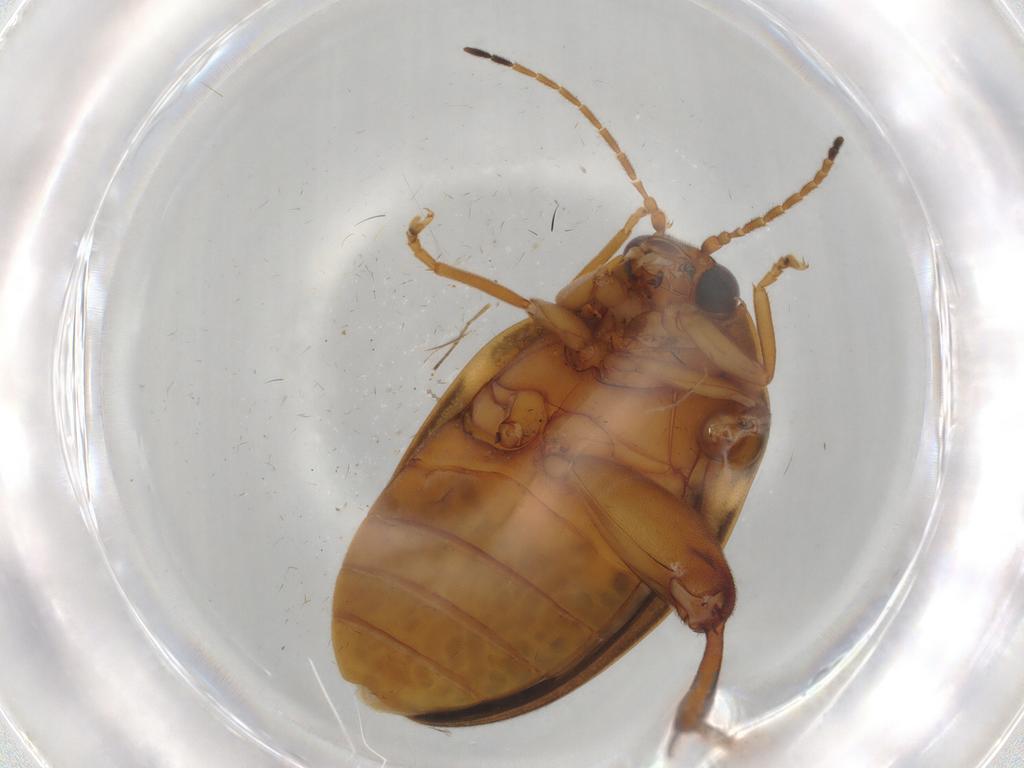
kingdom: Animalia
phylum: Arthropoda
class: Insecta
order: Coleoptera
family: Scirtidae
